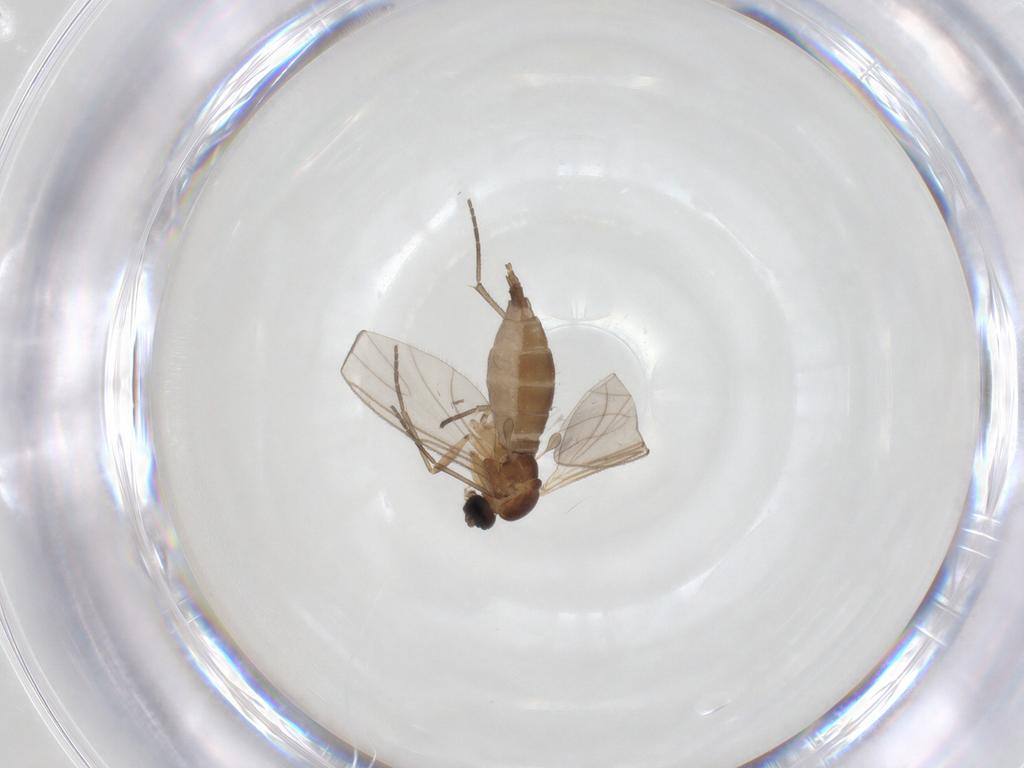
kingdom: Animalia
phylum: Arthropoda
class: Insecta
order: Diptera
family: Sciaridae
